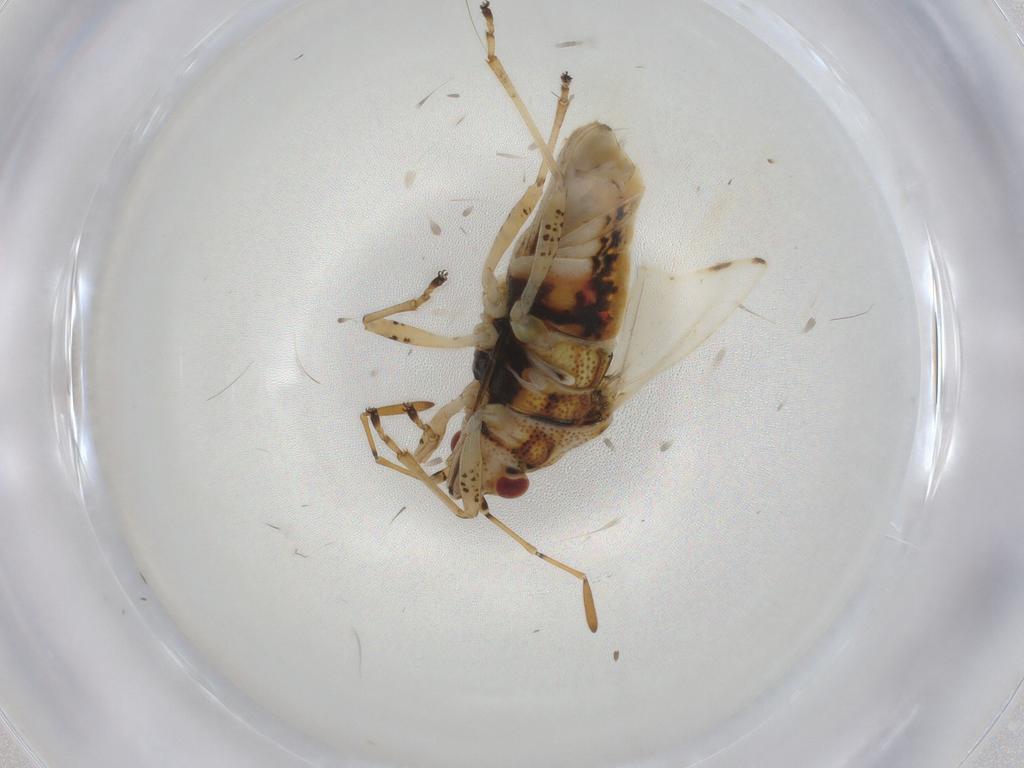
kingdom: Animalia
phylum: Arthropoda
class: Insecta
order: Hemiptera
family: Lygaeidae
